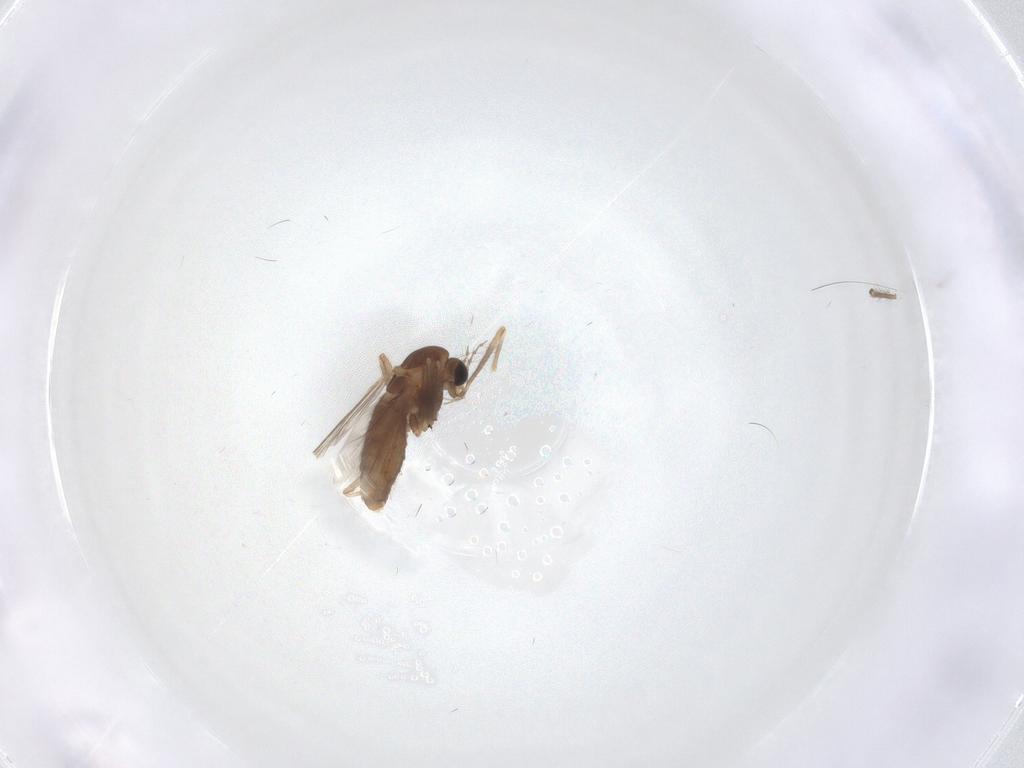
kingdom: Animalia
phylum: Arthropoda
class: Insecta
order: Diptera
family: Chironomidae
